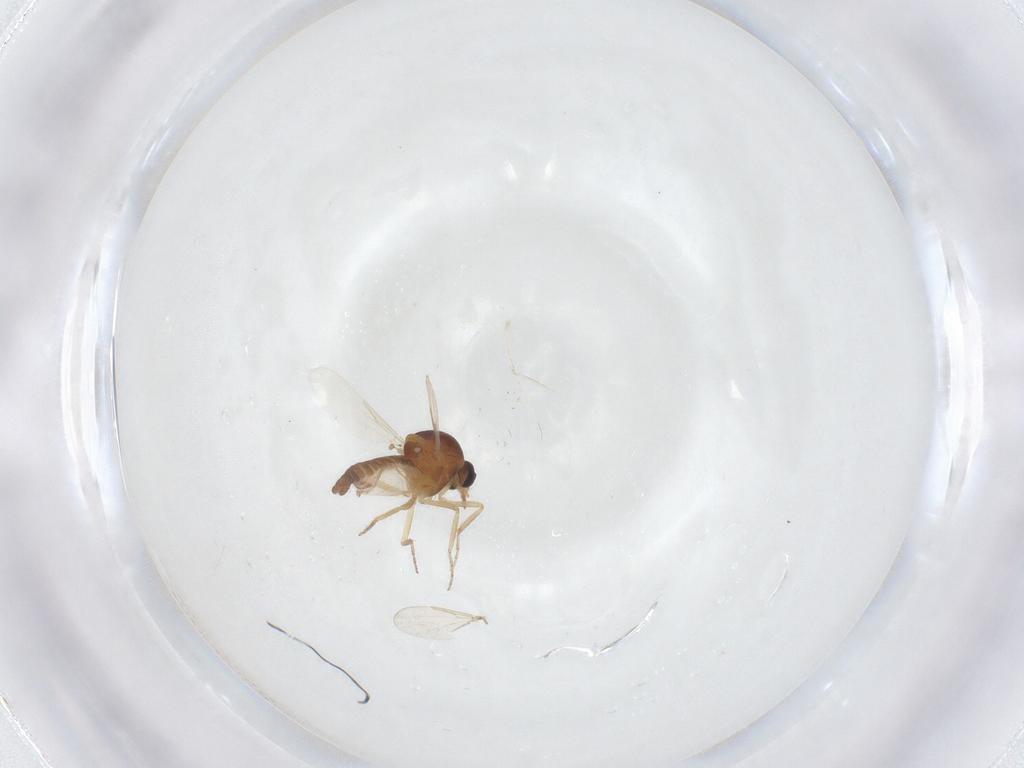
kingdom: Animalia
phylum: Arthropoda
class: Insecta
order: Diptera
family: Ceratopogonidae
